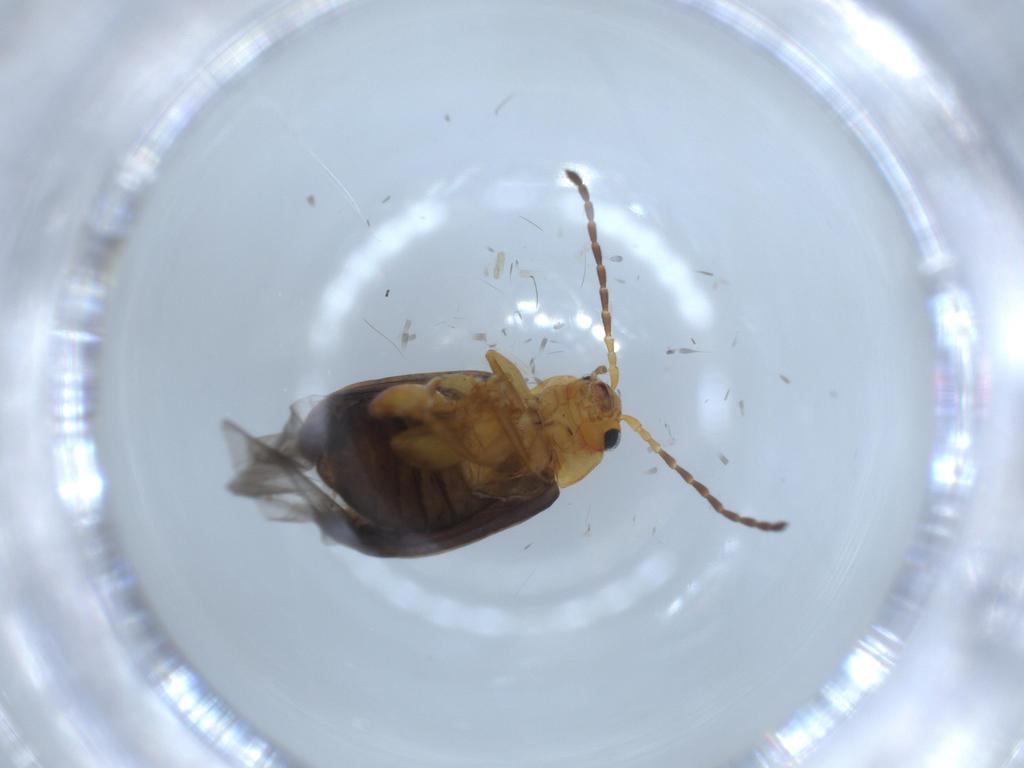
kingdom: Animalia
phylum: Arthropoda
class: Insecta
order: Coleoptera
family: Chrysomelidae
